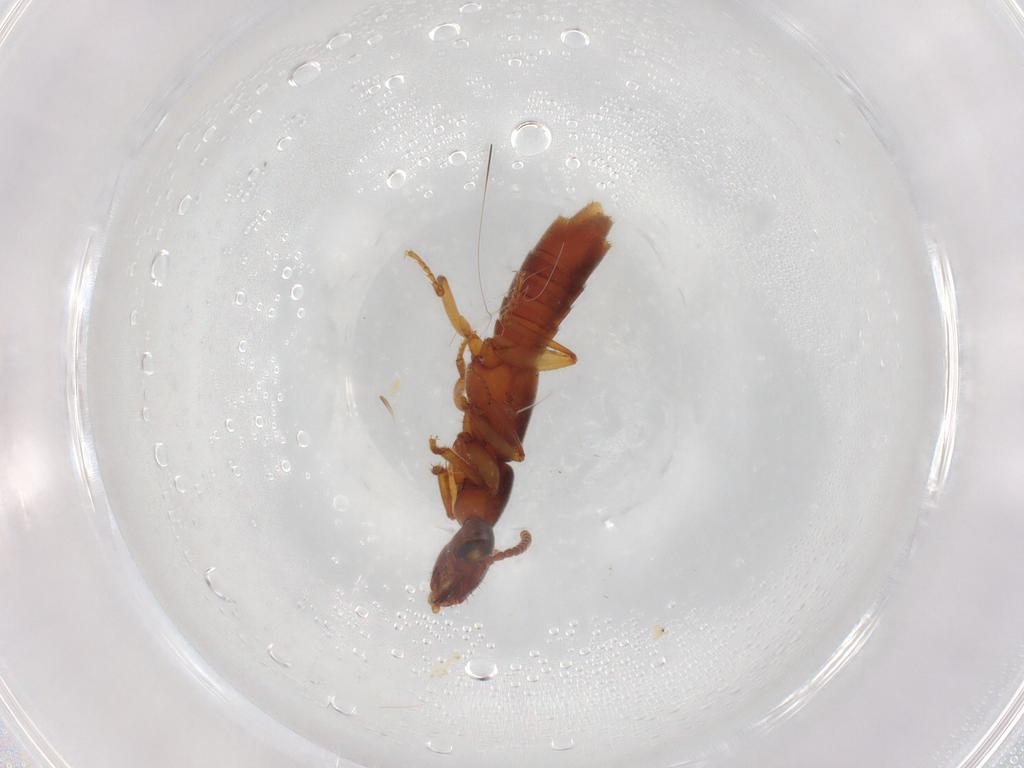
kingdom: Animalia
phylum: Arthropoda
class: Insecta
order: Coleoptera
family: Staphylinidae
